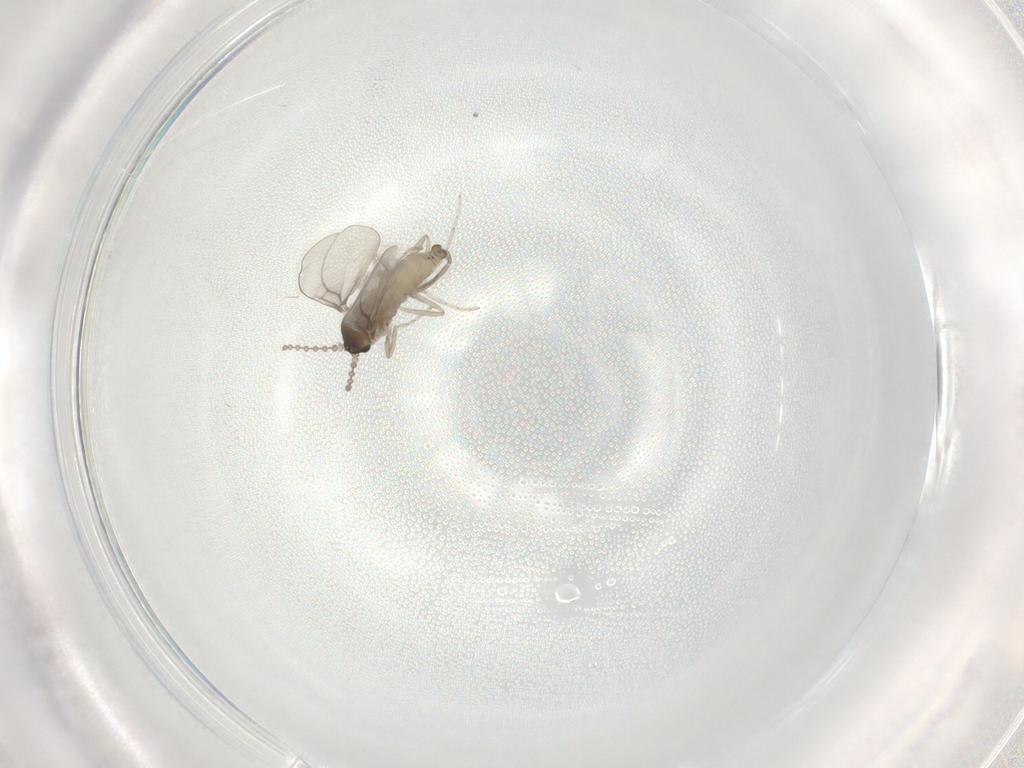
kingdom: Animalia
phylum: Arthropoda
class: Insecta
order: Diptera
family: Cecidomyiidae
